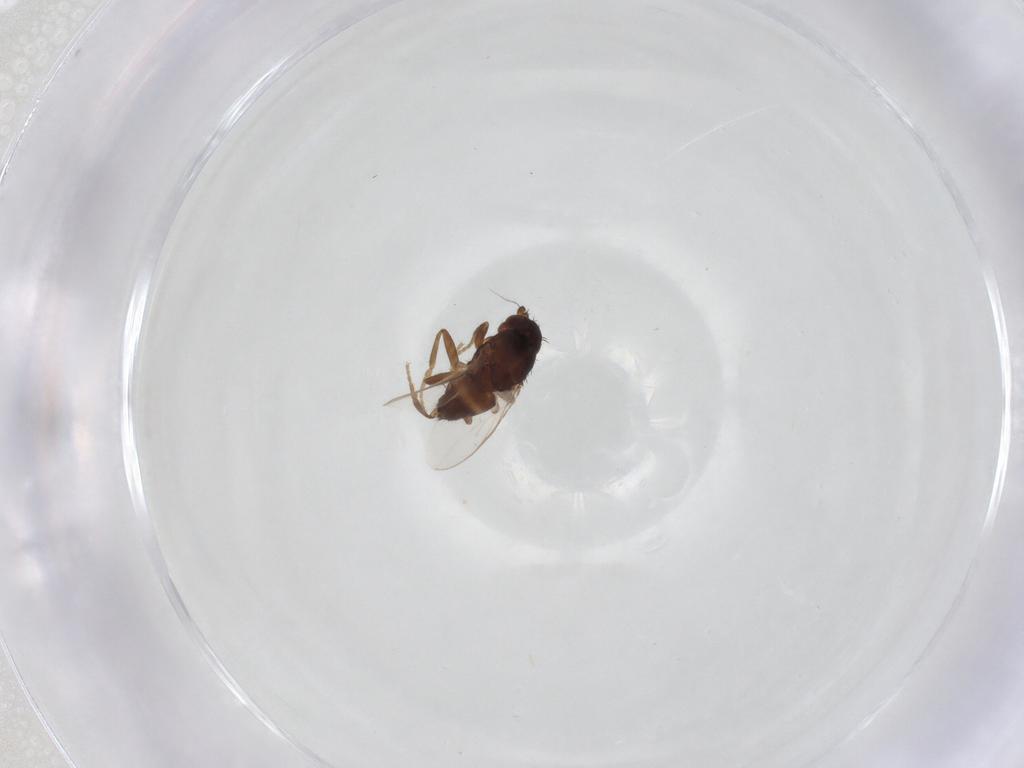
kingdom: Animalia
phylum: Arthropoda
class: Insecta
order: Diptera
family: Sphaeroceridae
